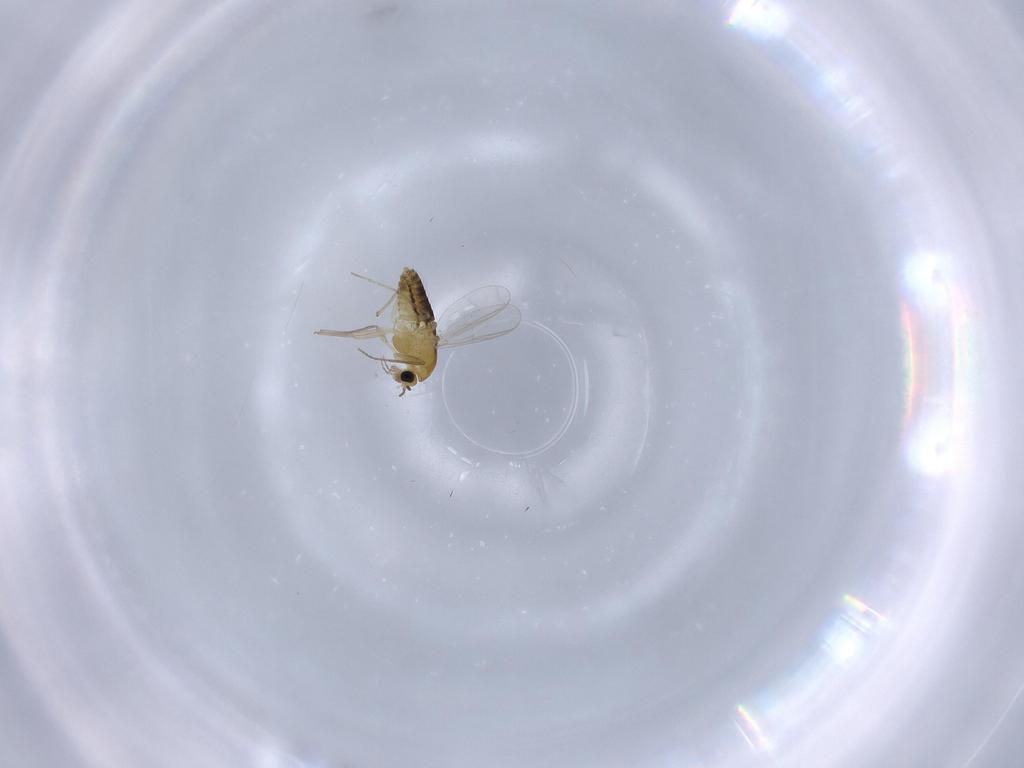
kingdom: Animalia
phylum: Arthropoda
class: Insecta
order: Diptera
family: Chironomidae
